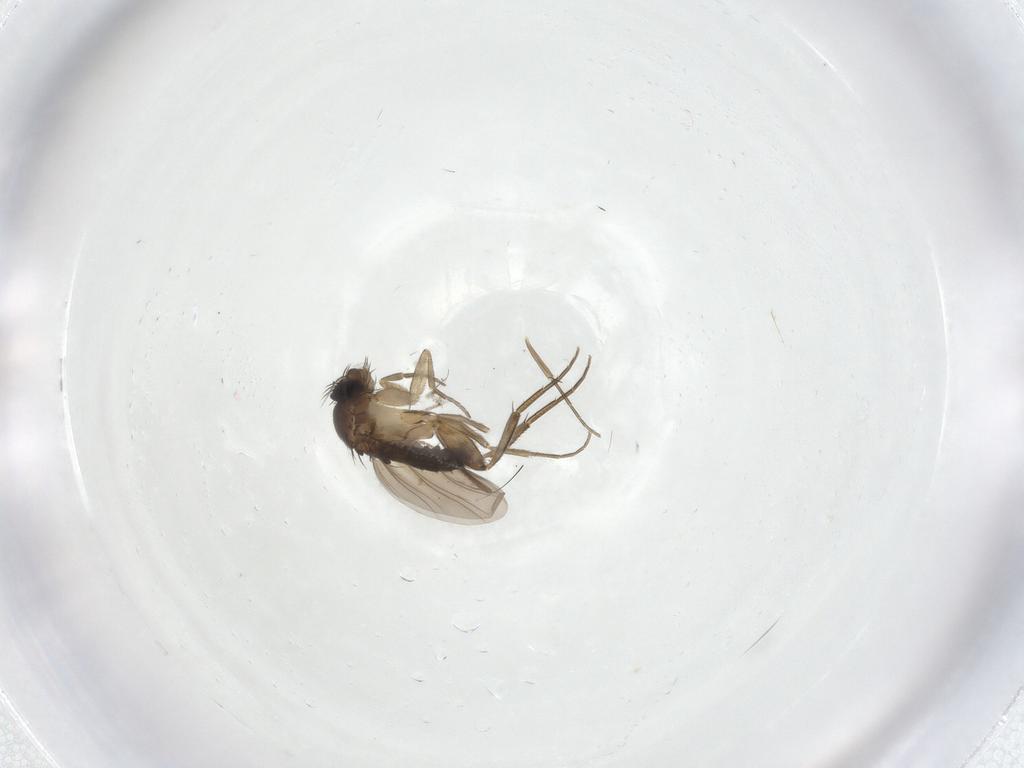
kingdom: Animalia
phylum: Arthropoda
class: Insecta
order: Diptera
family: Phoridae
